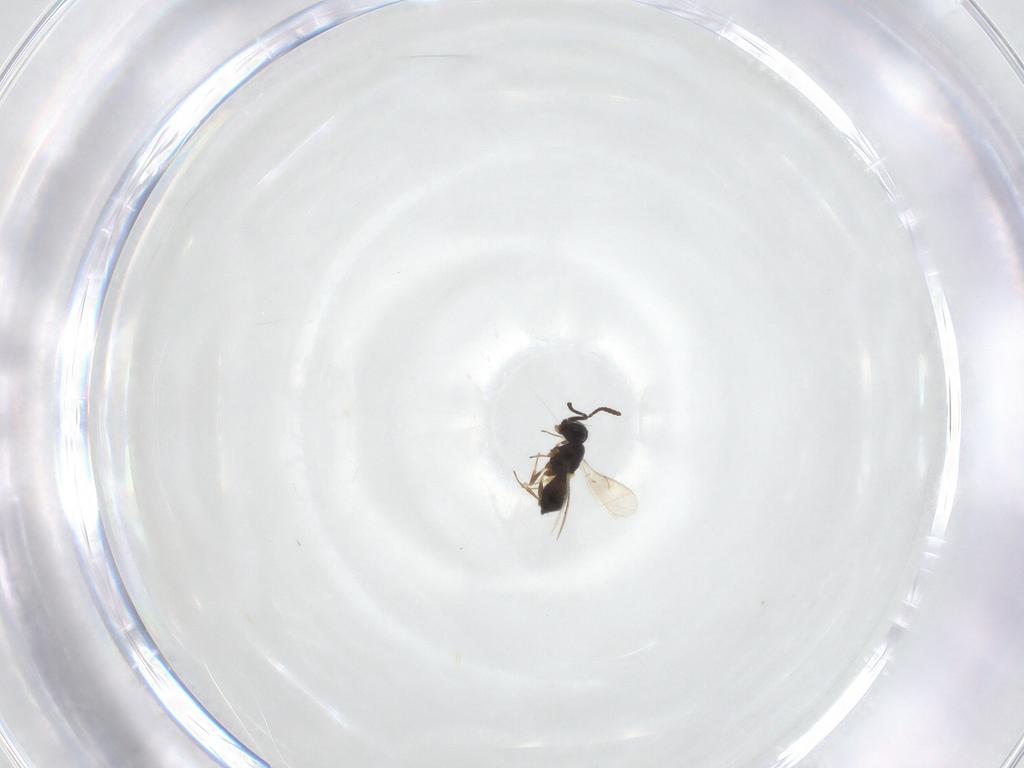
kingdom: Animalia
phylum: Arthropoda
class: Insecta
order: Hymenoptera
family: Scelionidae
